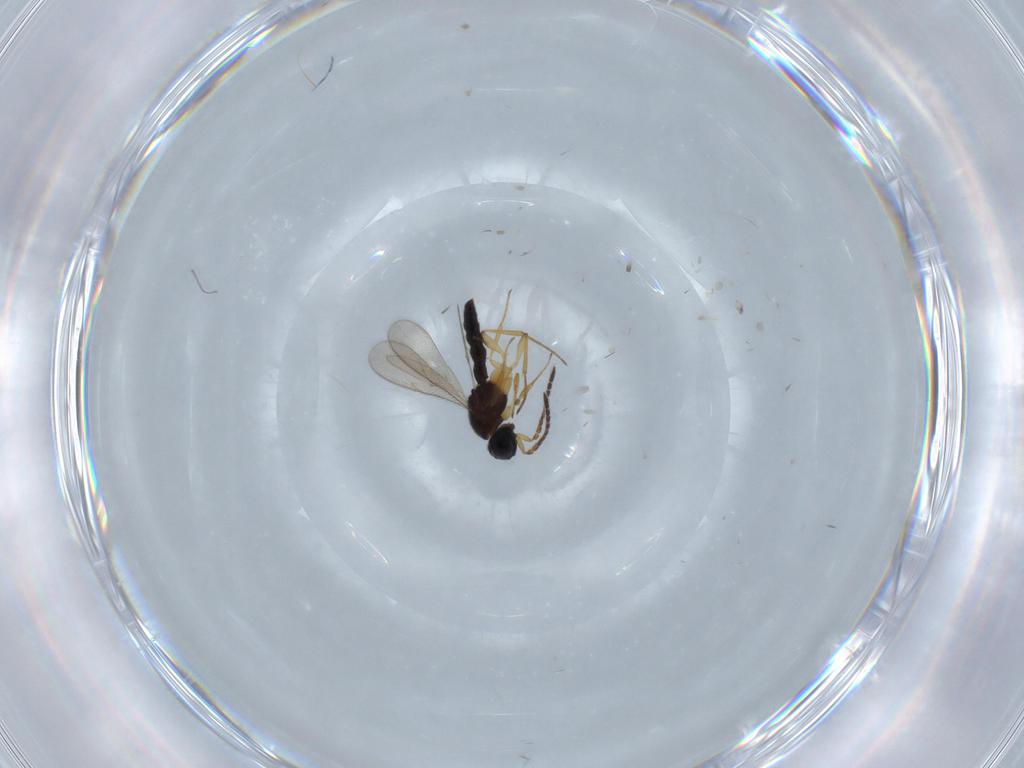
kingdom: Animalia
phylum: Arthropoda
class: Insecta
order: Hymenoptera
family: Scelionidae
